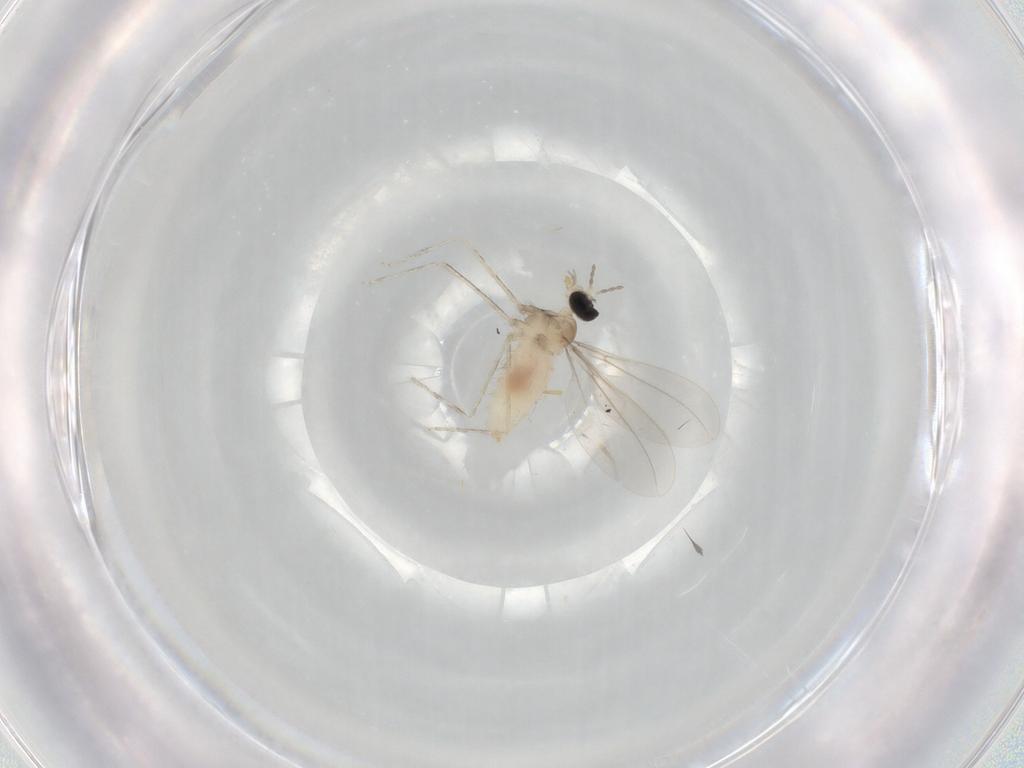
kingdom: Animalia
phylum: Arthropoda
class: Insecta
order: Diptera
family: Cecidomyiidae
